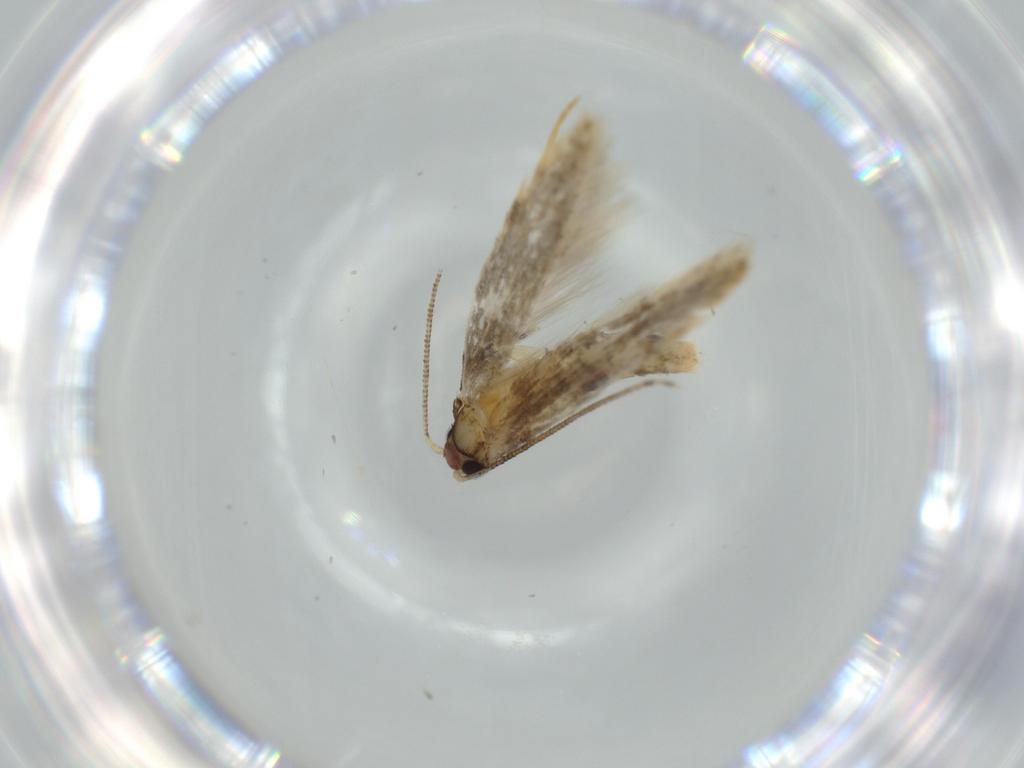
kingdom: Animalia
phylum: Arthropoda
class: Insecta
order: Lepidoptera
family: Tineidae
